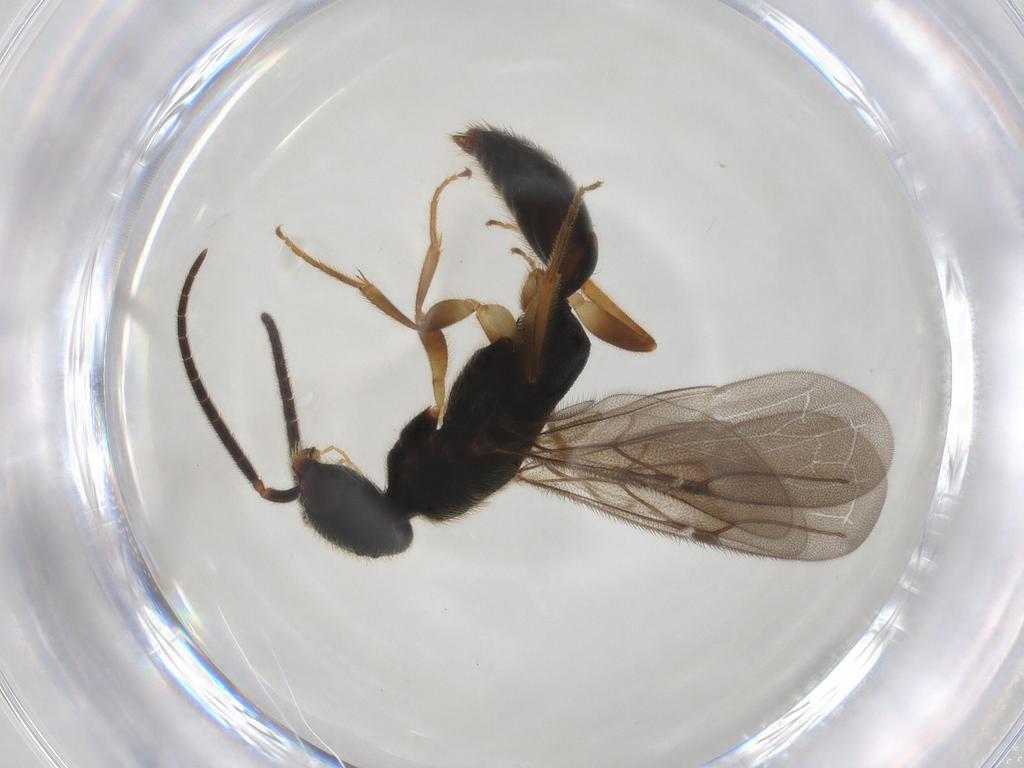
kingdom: Animalia
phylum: Arthropoda
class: Insecta
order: Hymenoptera
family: Bethylidae
